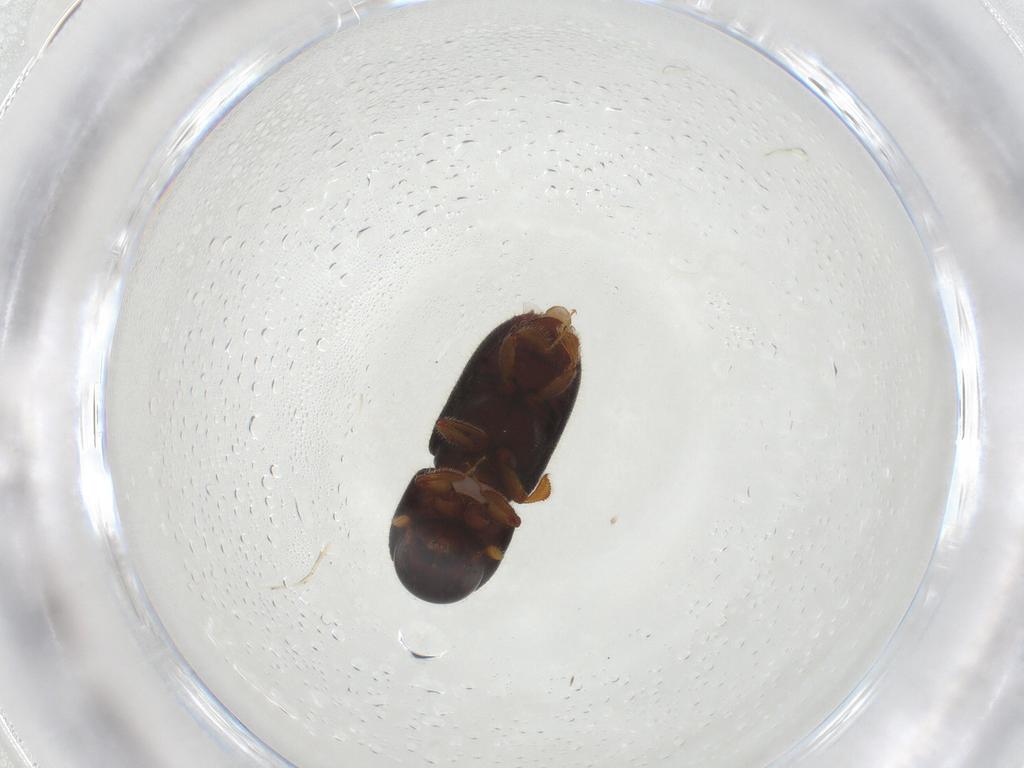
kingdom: Animalia
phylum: Arthropoda
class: Insecta
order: Coleoptera
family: Curculionidae
